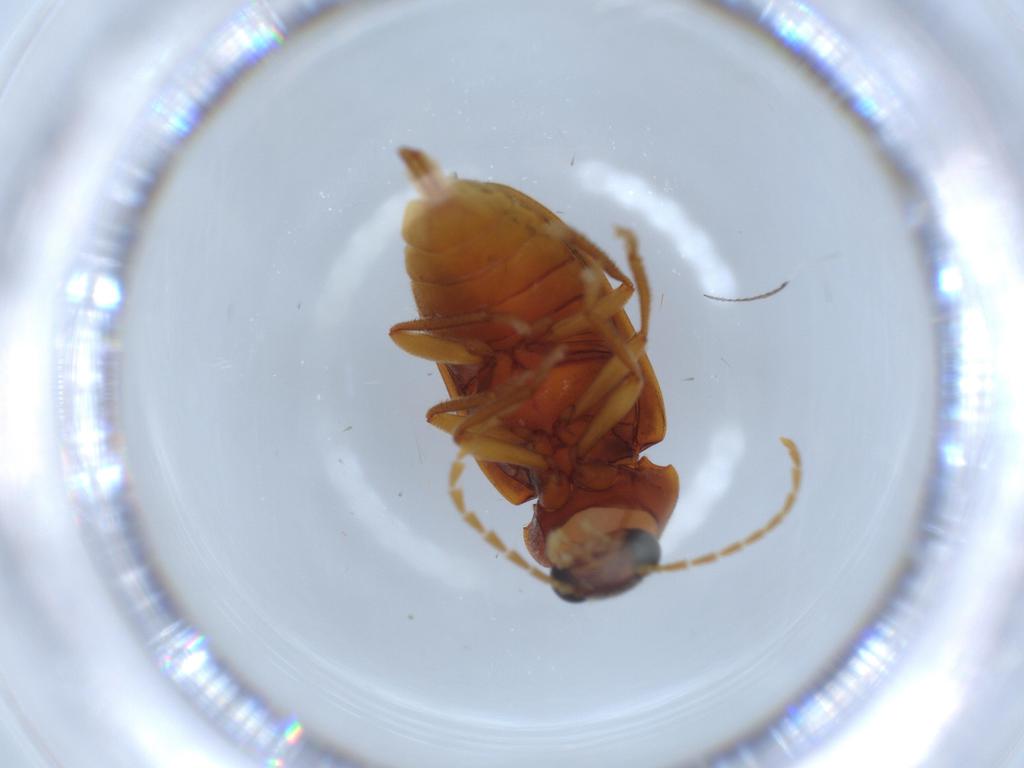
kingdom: Animalia
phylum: Arthropoda
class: Insecta
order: Coleoptera
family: Ptilodactylidae
